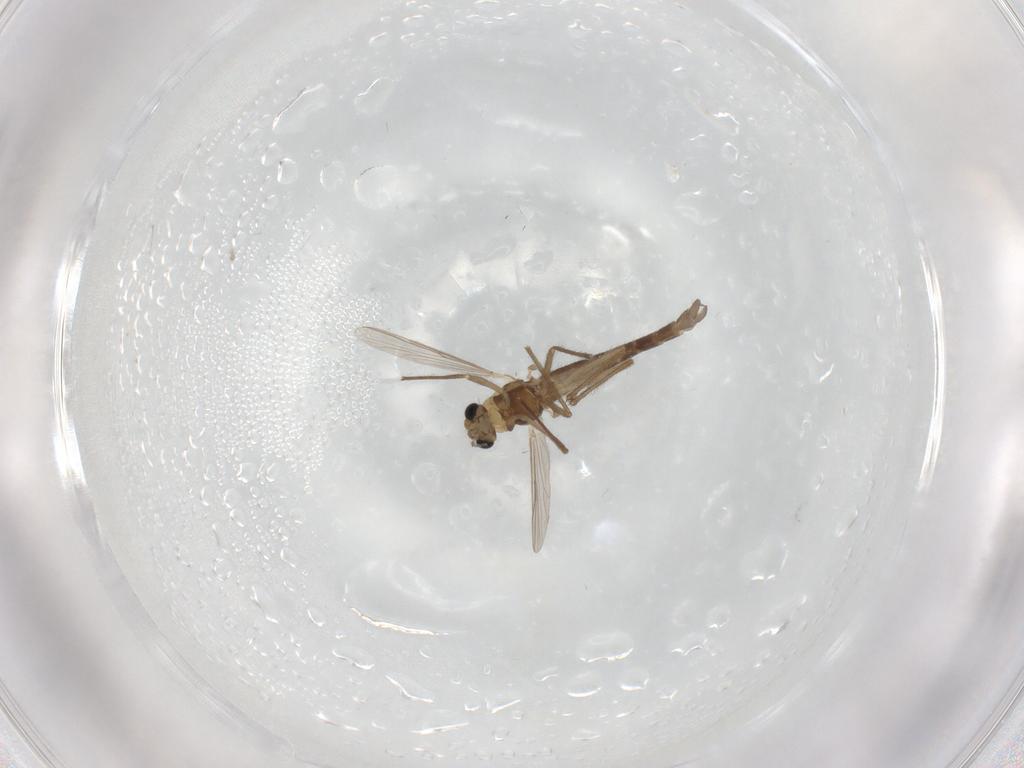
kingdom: Animalia
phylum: Arthropoda
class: Insecta
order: Diptera
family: Chironomidae
